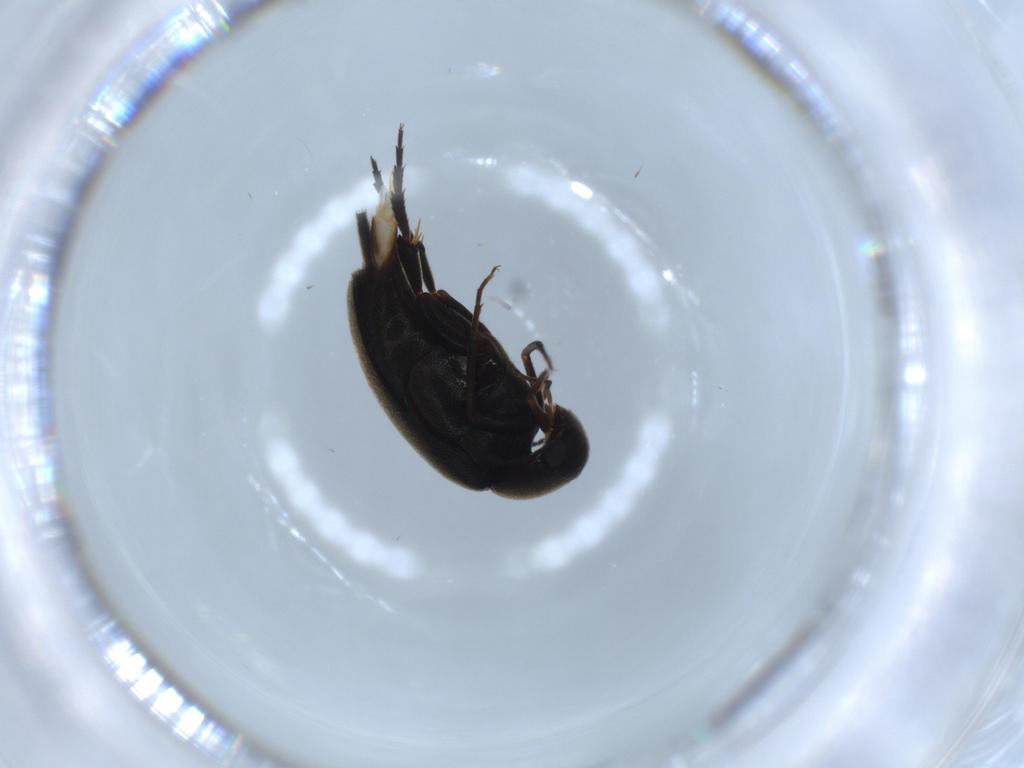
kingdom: Animalia
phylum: Arthropoda
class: Insecta
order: Coleoptera
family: Mordellidae
